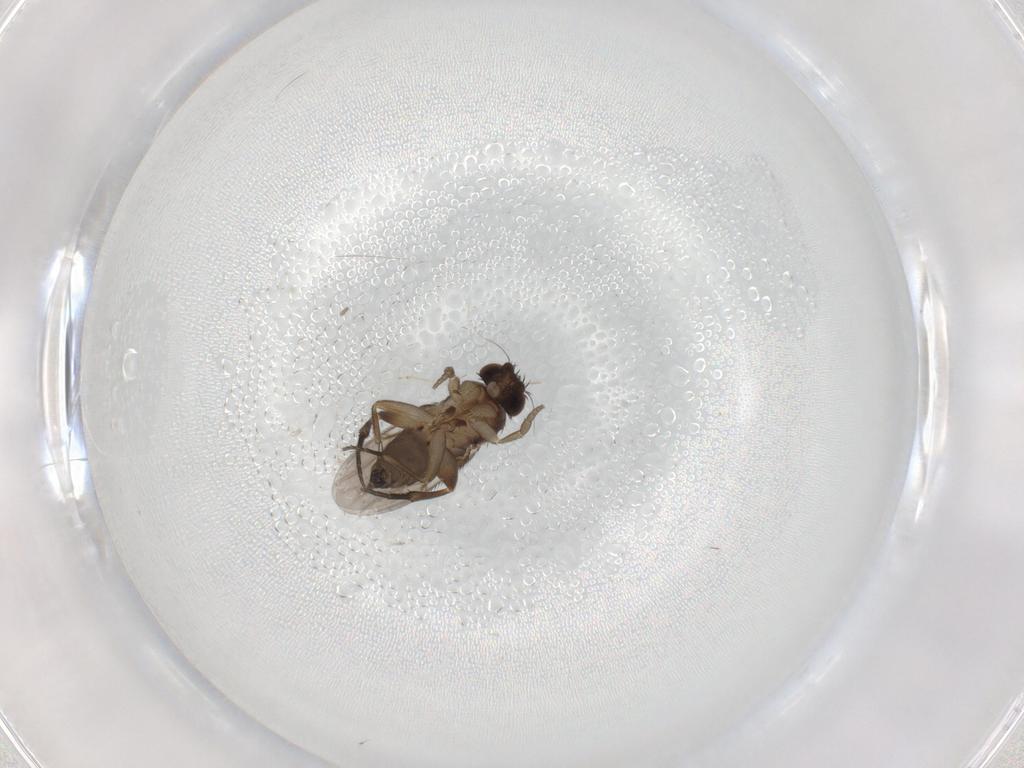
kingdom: Animalia
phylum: Arthropoda
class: Insecta
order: Diptera
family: Phoridae
